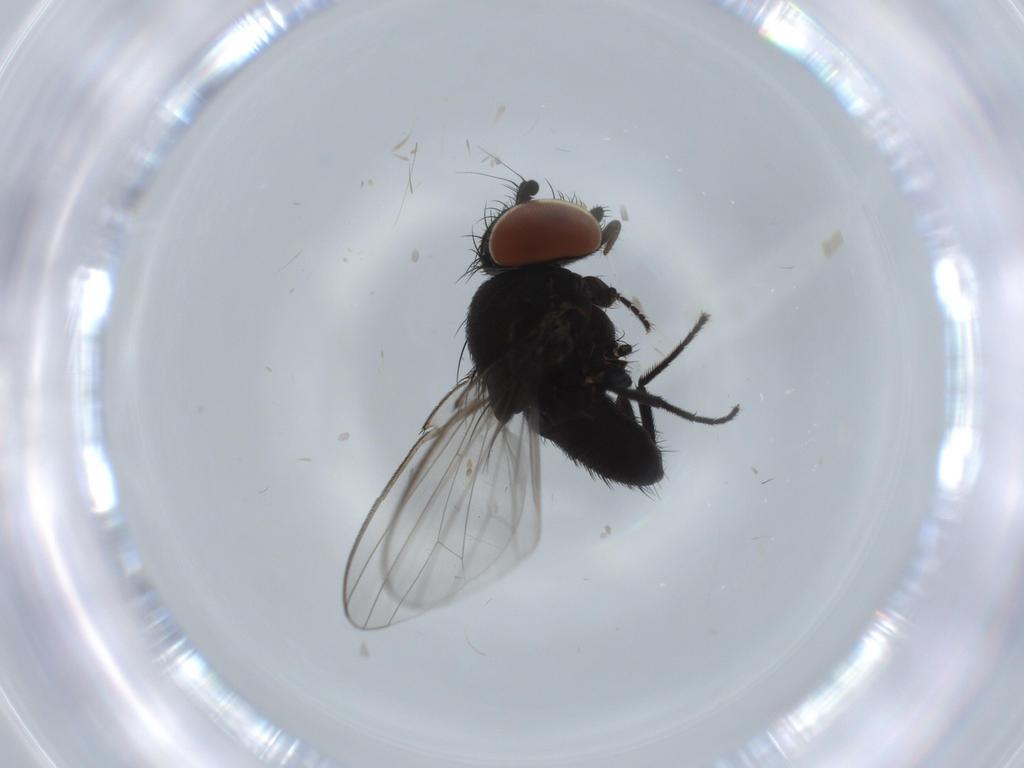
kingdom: Animalia
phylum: Arthropoda
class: Insecta
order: Diptera
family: Milichiidae
